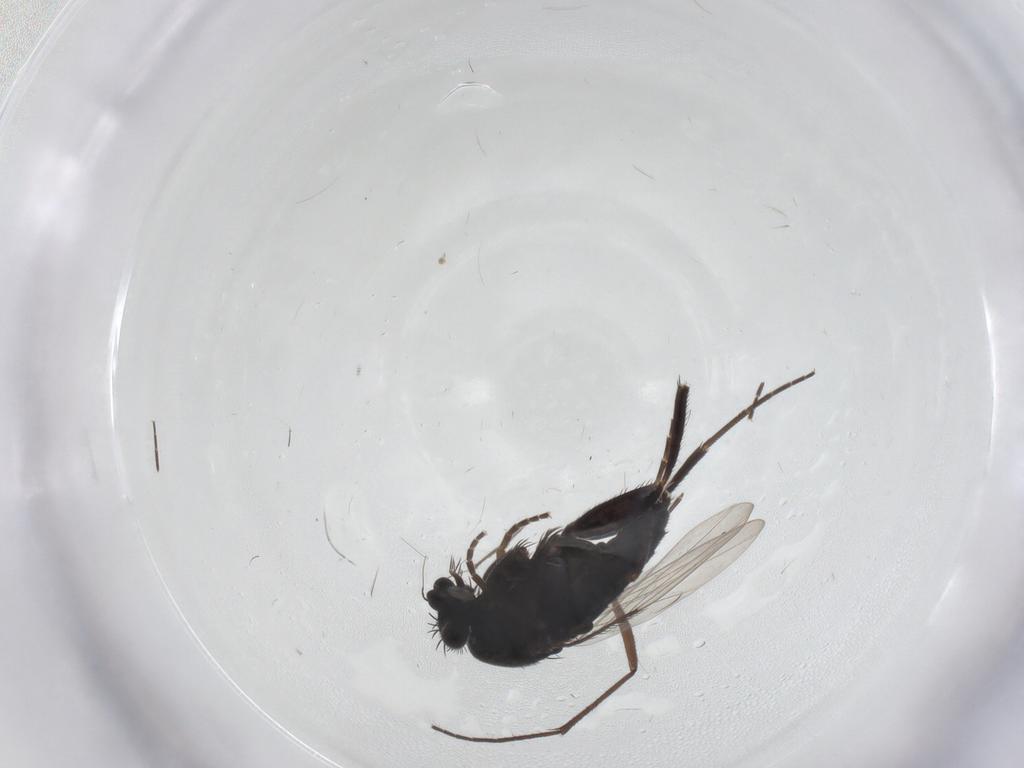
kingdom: Animalia
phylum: Arthropoda
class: Insecta
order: Diptera
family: Phoridae
